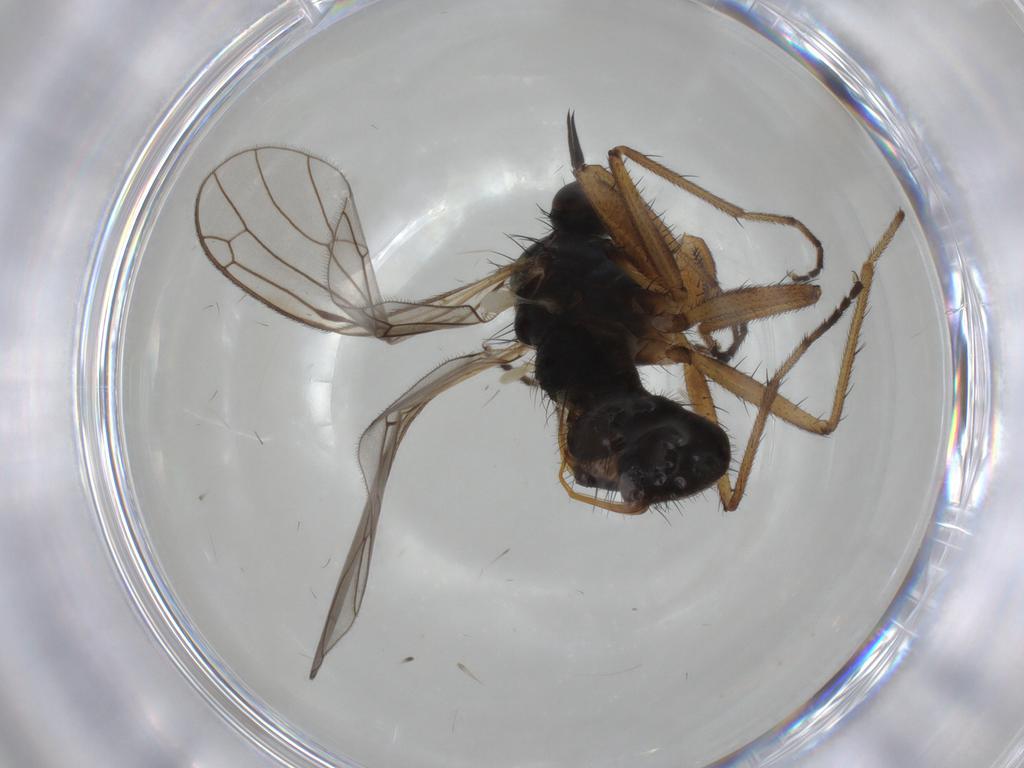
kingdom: Animalia
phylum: Arthropoda
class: Insecta
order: Diptera
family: Empididae
